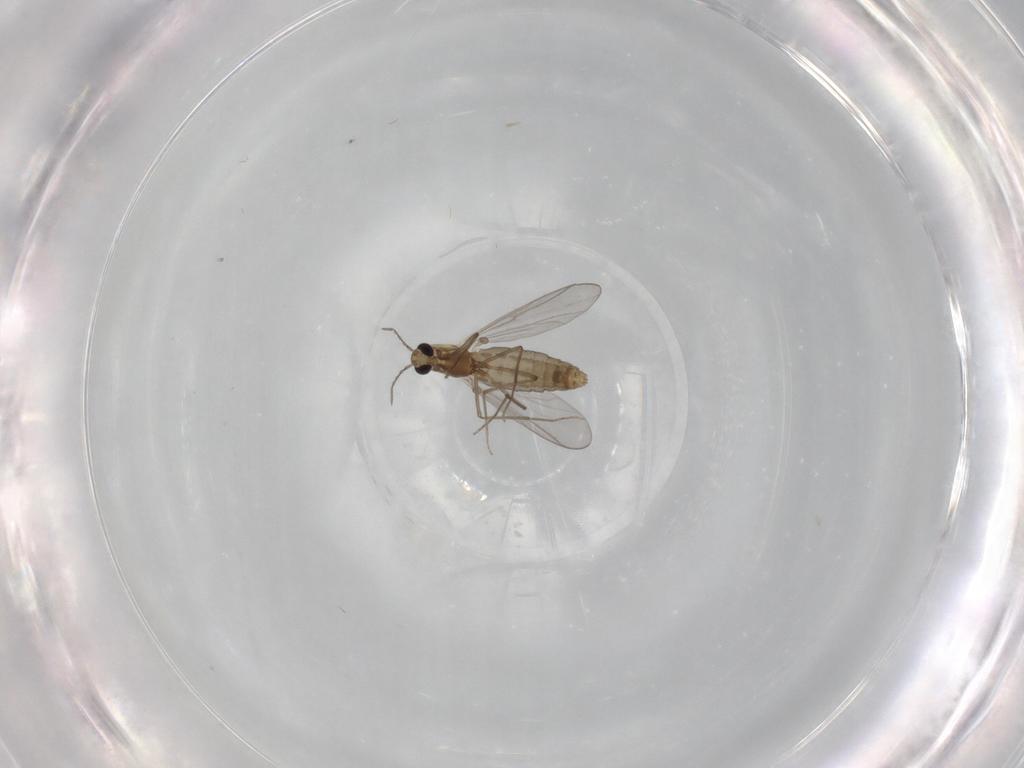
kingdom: Animalia
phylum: Arthropoda
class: Insecta
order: Diptera
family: Chironomidae
